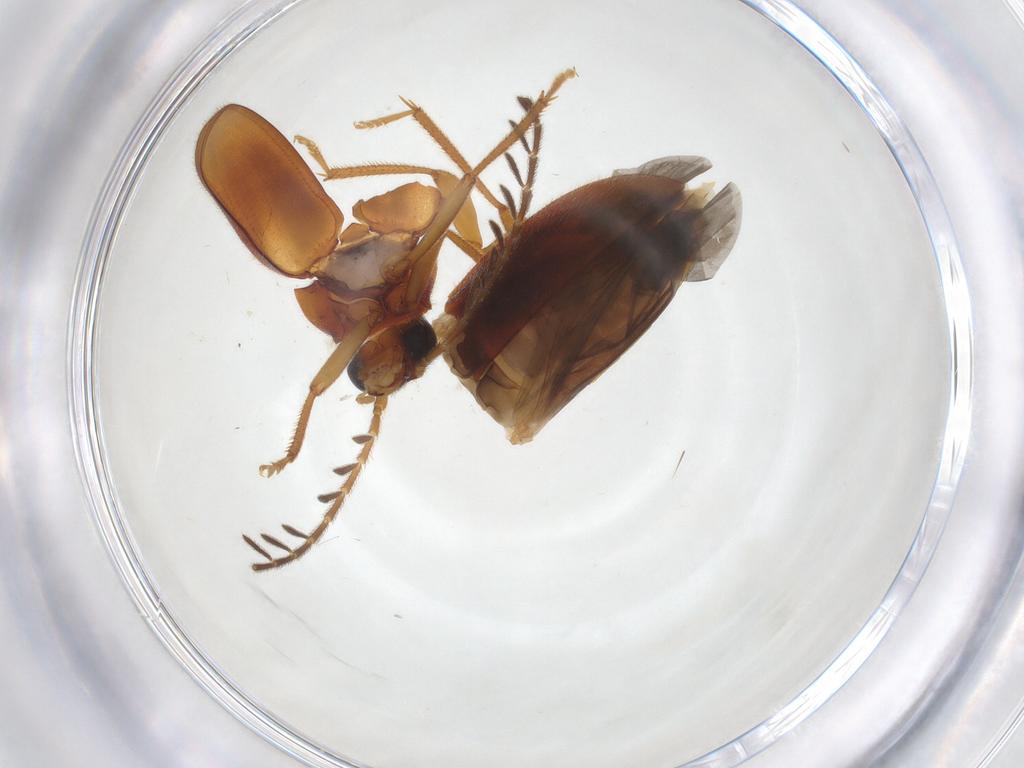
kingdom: Animalia
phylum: Arthropoda
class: Insecta
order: Coleoptera
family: Ptilodactylidae
